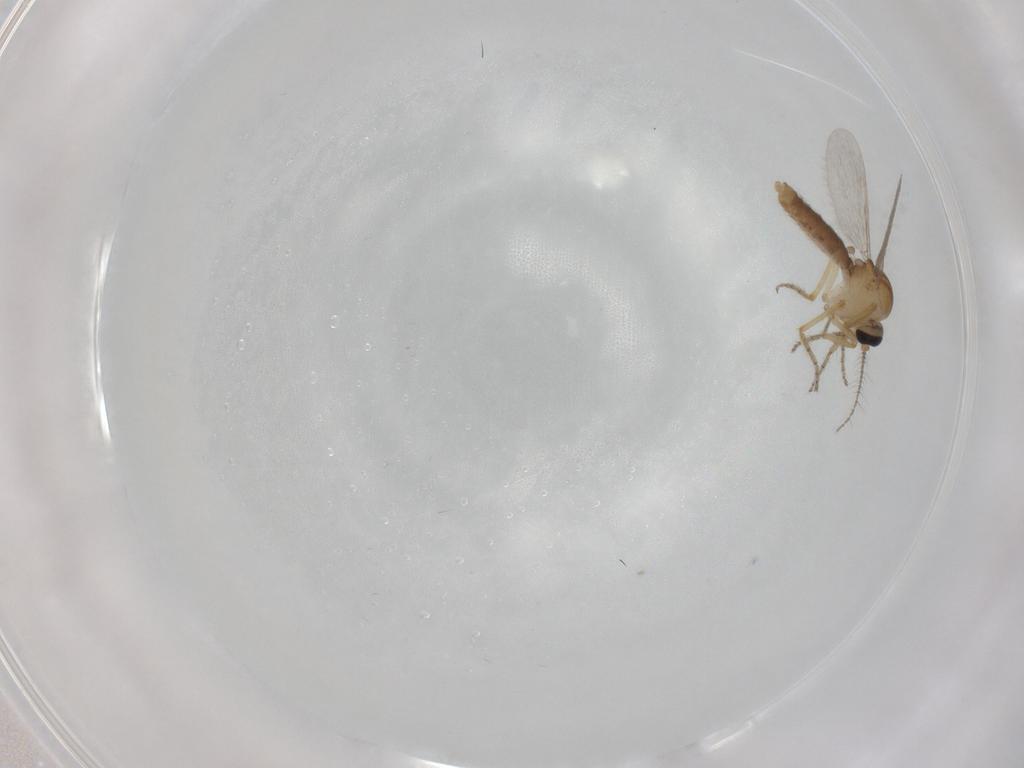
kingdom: Animalia
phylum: Arthropoda
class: Insecta
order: Diptera
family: Ceratopogonidae
